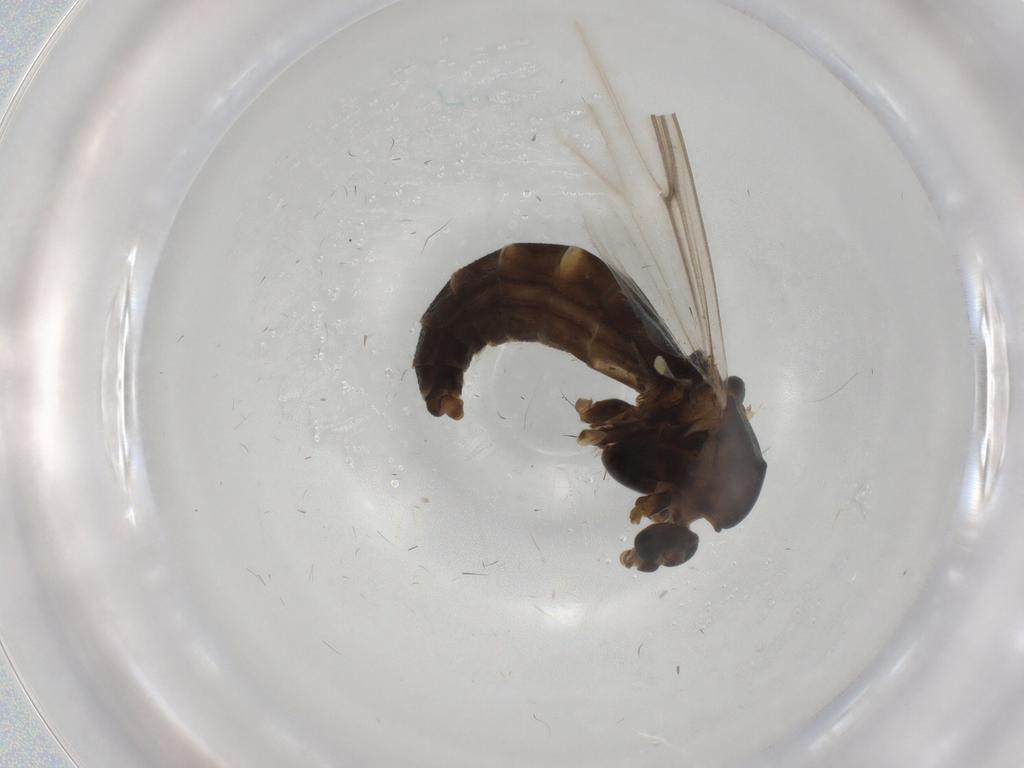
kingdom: Animalia
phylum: Arthropoda
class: Insecta
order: Diptera
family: Chironomidae
